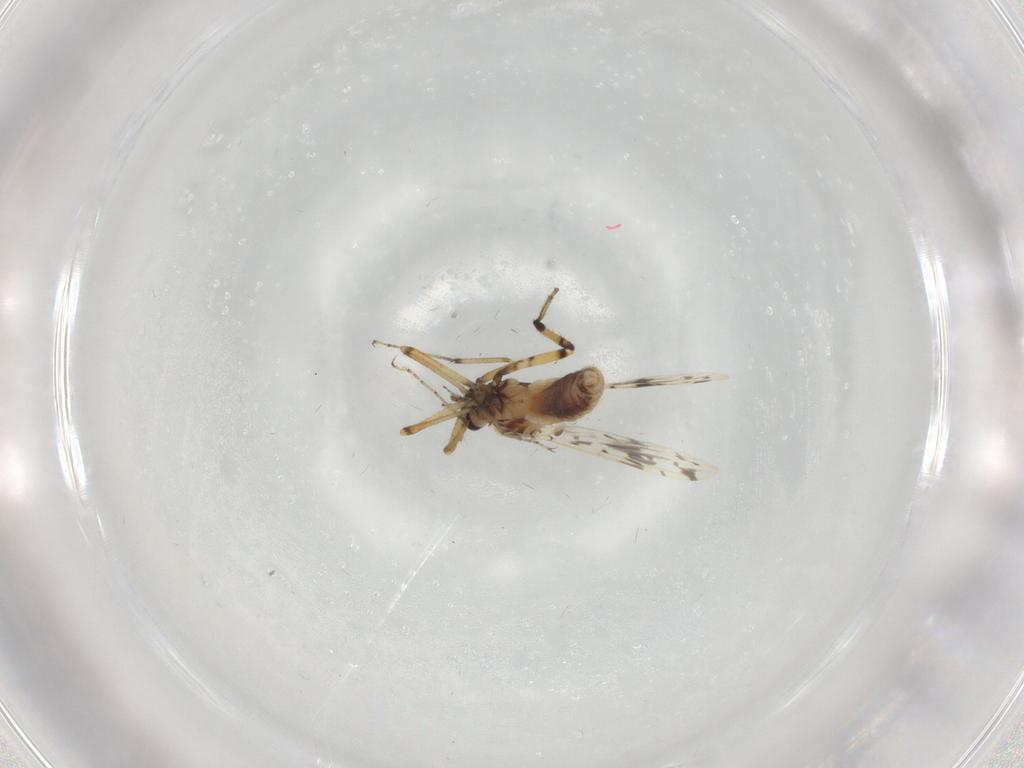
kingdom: Animalia
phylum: Arthropoda
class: Insecta
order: Diptera
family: Ceratopogonidae
